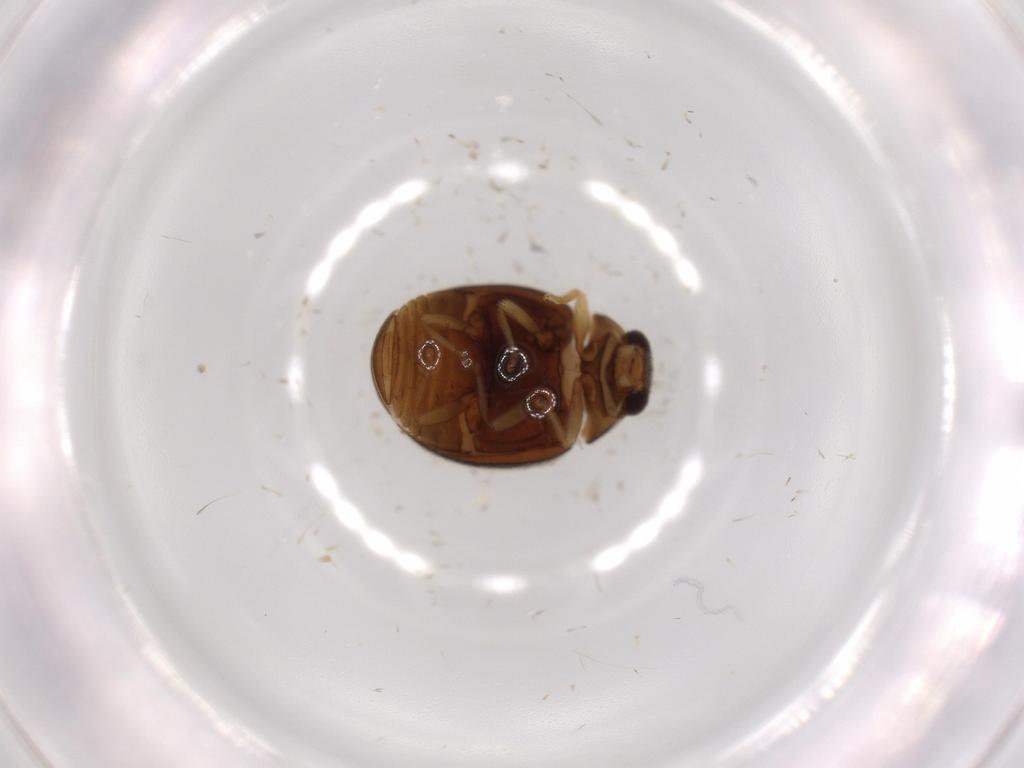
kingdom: Animalia
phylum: Arthropoda
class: Insecta
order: Coleoptera
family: Coccinellidae
